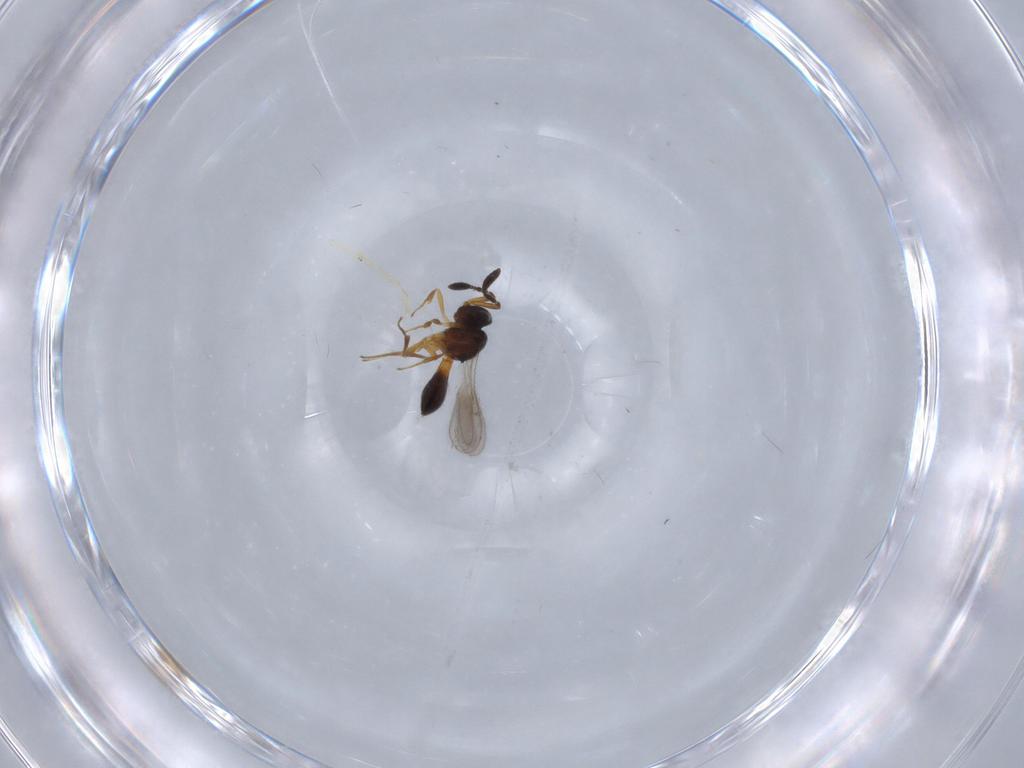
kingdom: Animalia
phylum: Arthropoda
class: Insecta
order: Hymenoptera
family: Scelionidae
